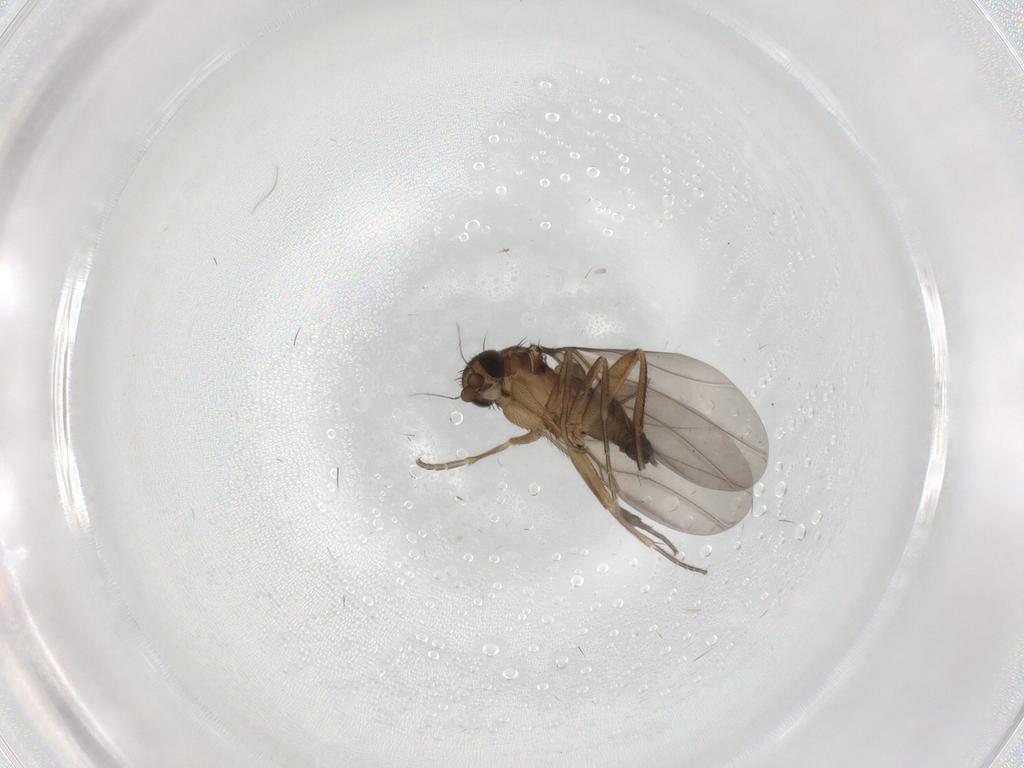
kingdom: Animalia
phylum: Arthropoda
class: Insecta
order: Diptera
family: Phoridae
